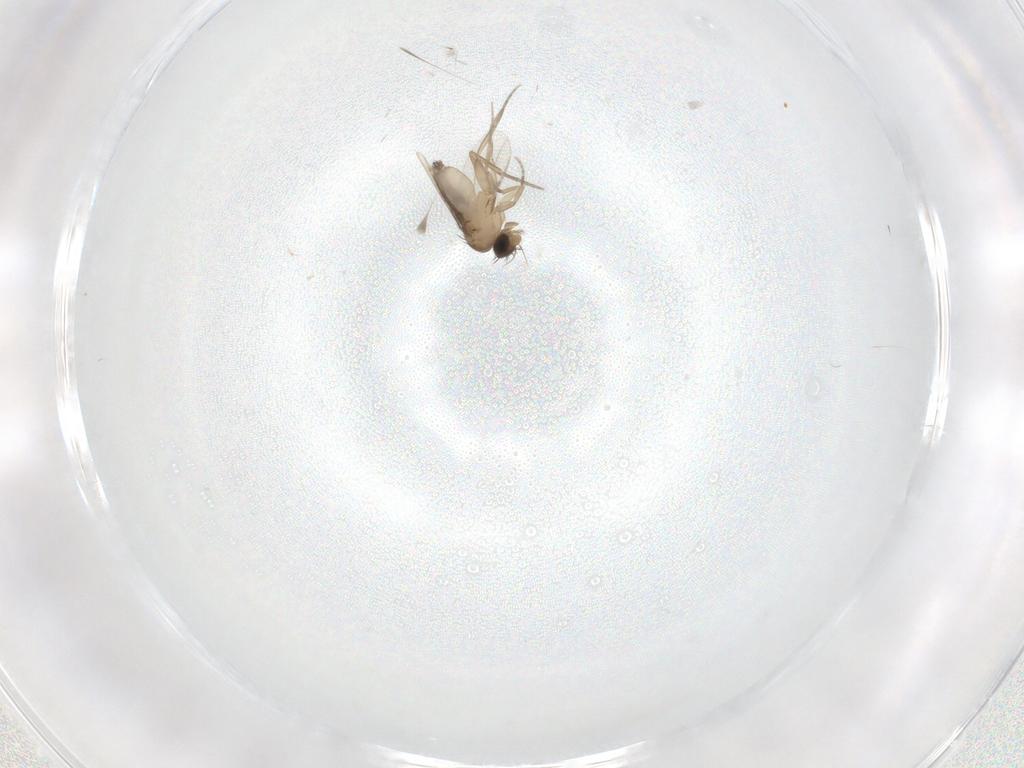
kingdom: Animalia
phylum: Arthropoda
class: Insecta
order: Diptera
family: Phoridae
